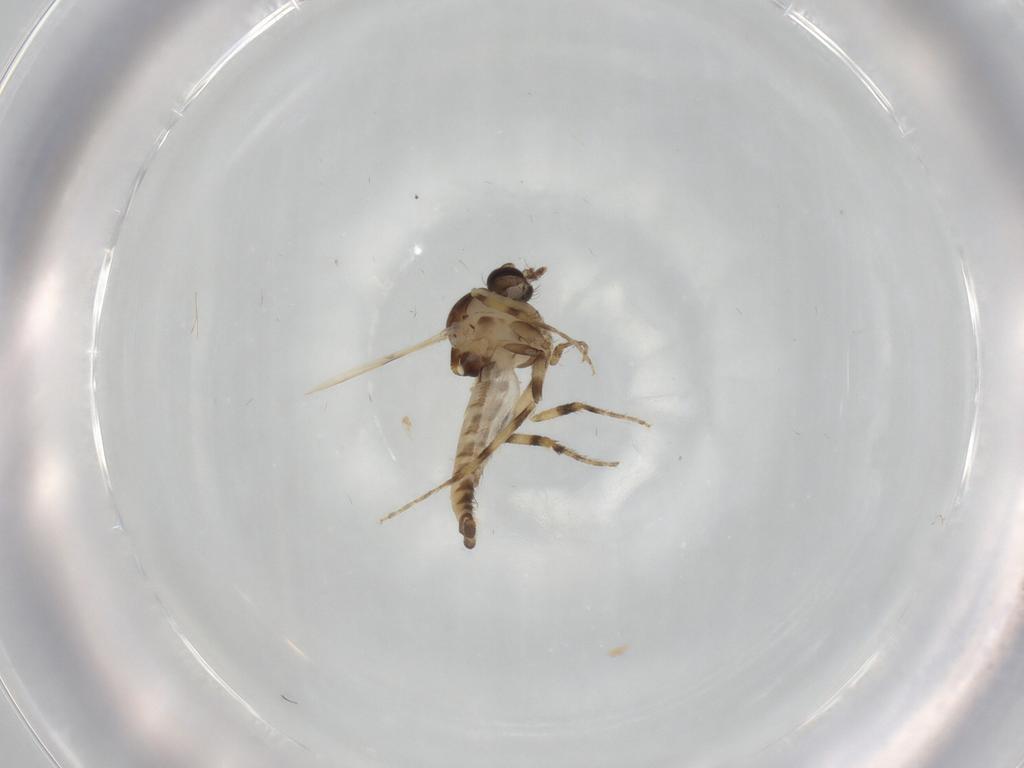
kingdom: Animalia
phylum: Arthropoda
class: Insecta
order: Diptera
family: Ceratopogonidae
